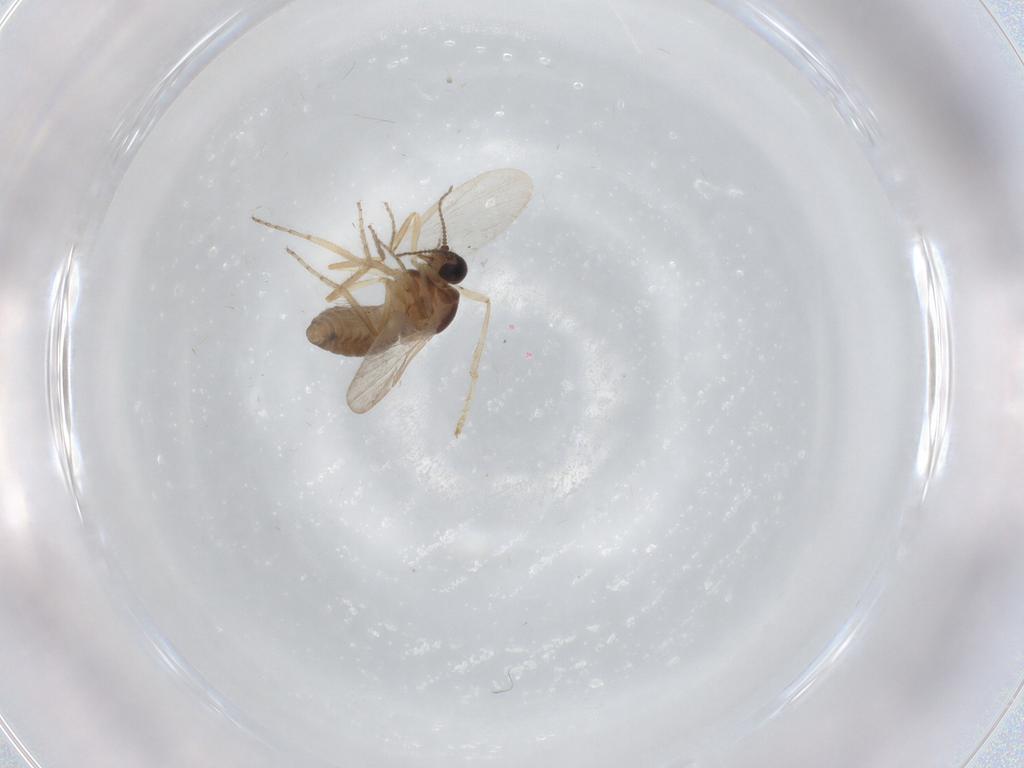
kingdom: Animalia
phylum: Arthropoda
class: Insecta
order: Diptera
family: Ceratopogonidae
